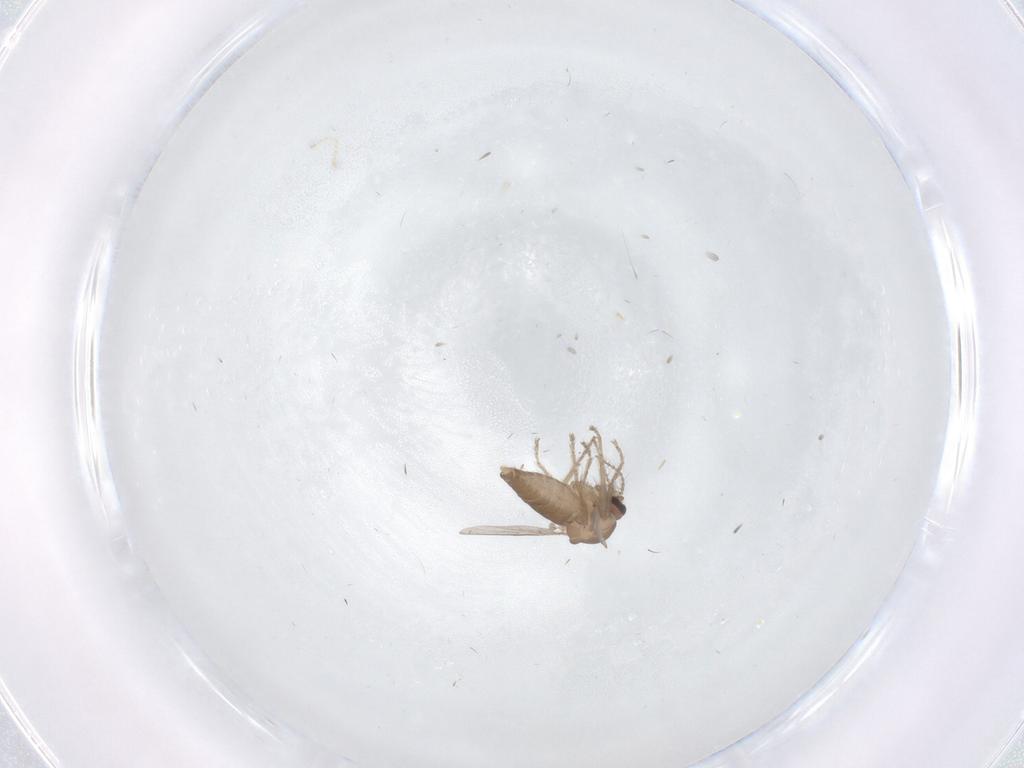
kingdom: Animalia
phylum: Arthropoda
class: Insecta
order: Diptera
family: Ceratopogonidae
